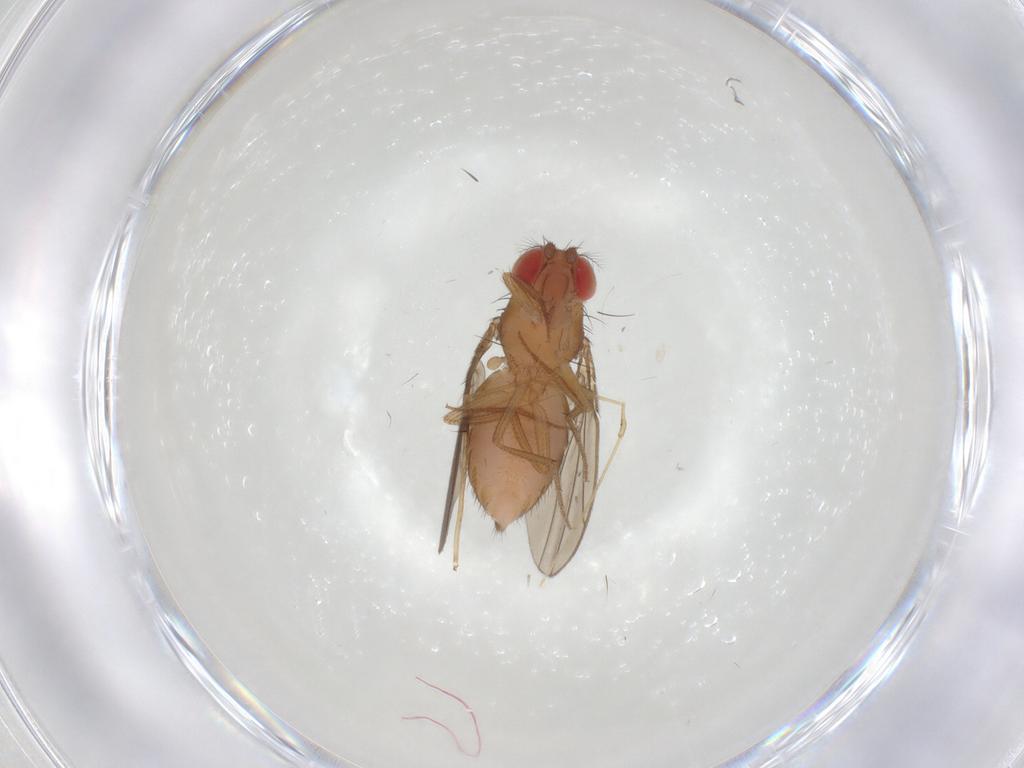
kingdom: Animalia
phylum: Arthropoda
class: Insecta
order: Diptera
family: Drosophilidae
